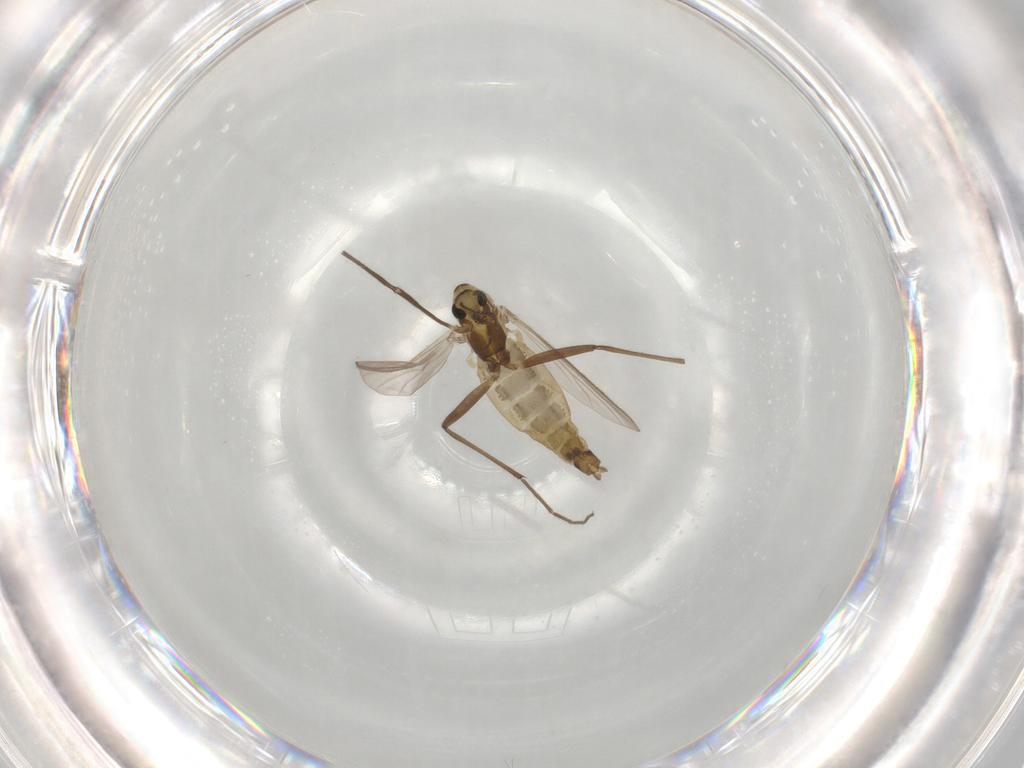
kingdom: Animalia
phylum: Arthropoda
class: Insecta
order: Diptera
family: Chironomidae
